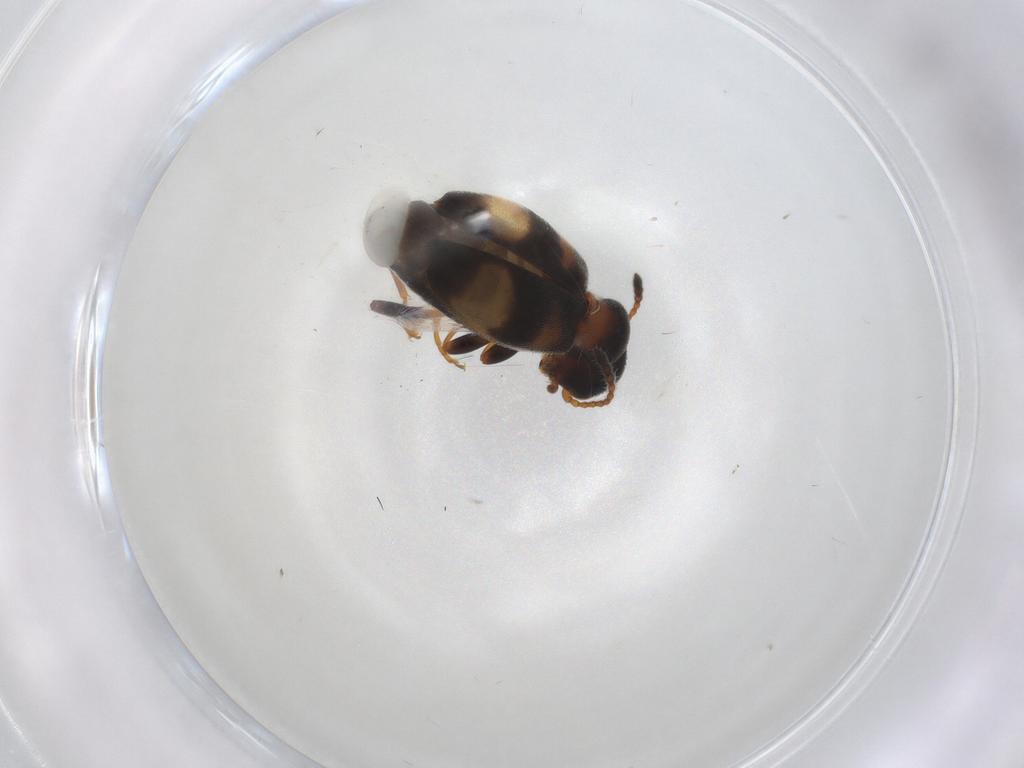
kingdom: Animalia
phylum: Arthropoda
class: Insecta
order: Coleoptera
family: Anthicidae
